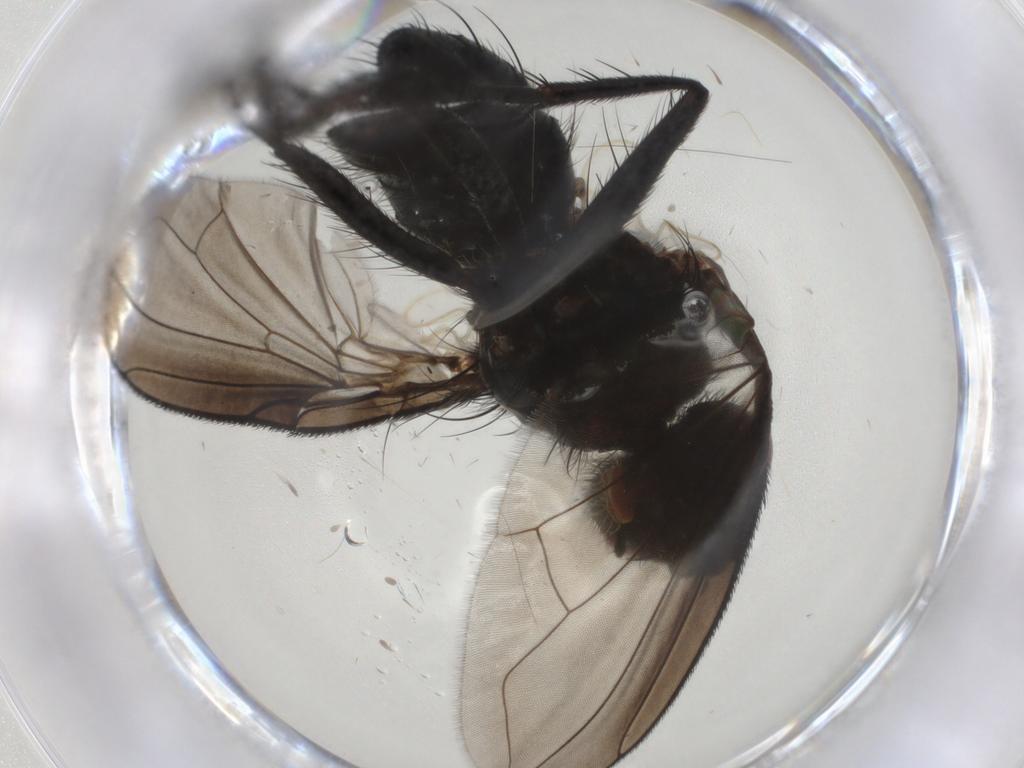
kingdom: Animalia
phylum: Arthropoda
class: Insecta
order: Diptera
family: Tachinidae
